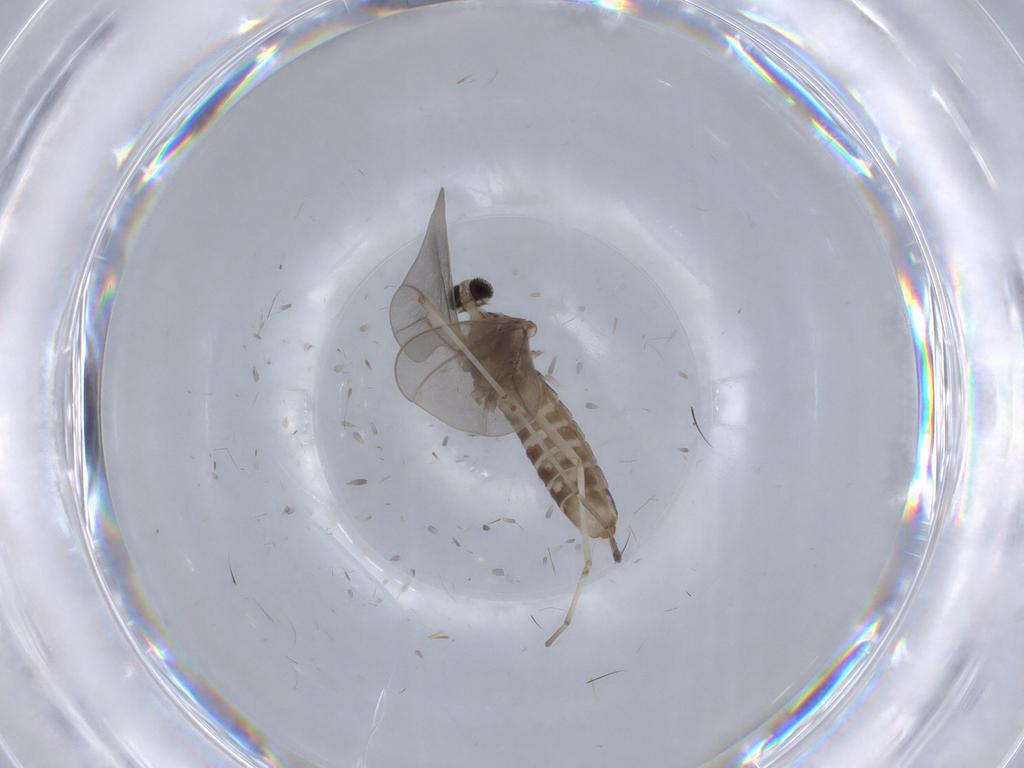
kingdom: Animalia
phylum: Arthropoda
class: Insecta
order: Diptera
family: Cecidomyiidae
